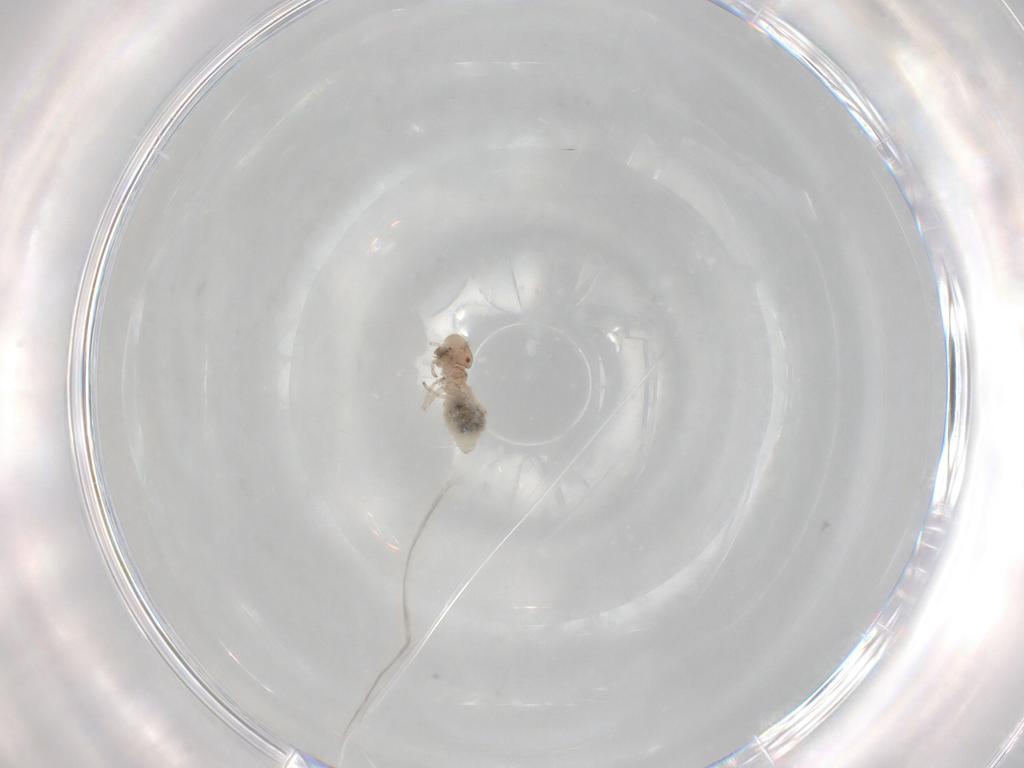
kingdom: Animalia
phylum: Arthropoda
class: Insecta
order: Psocodea
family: Caeciliusidae
